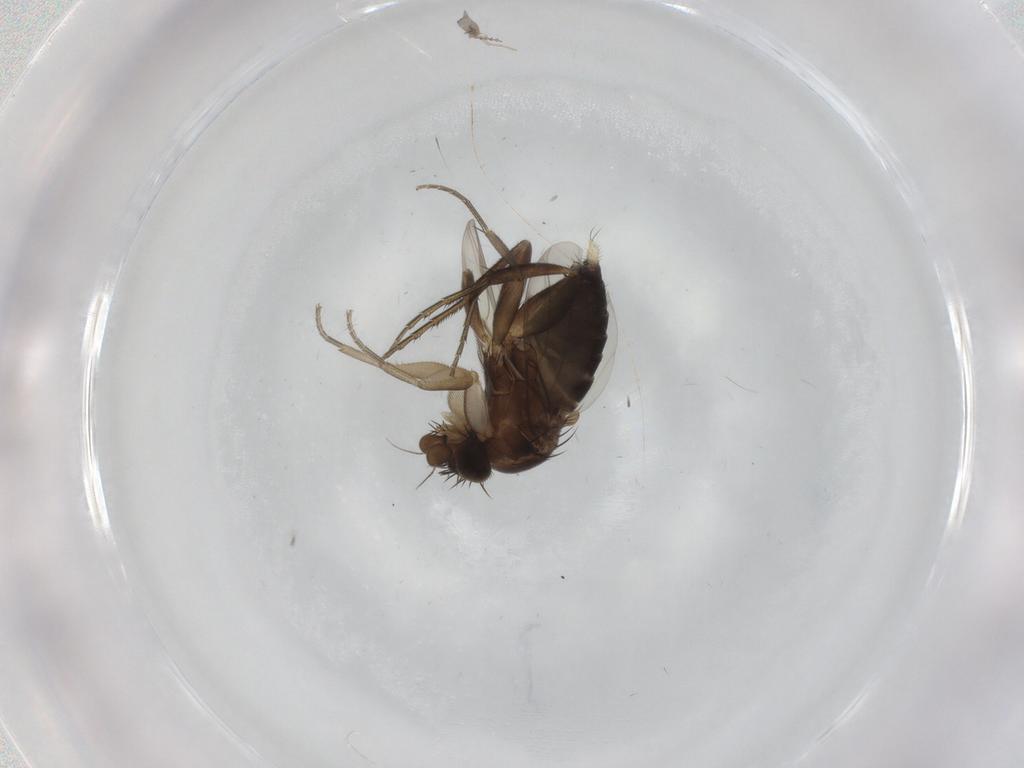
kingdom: Animalia
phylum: Arthropoda
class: Insecta
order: Diptera
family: Phoridae
